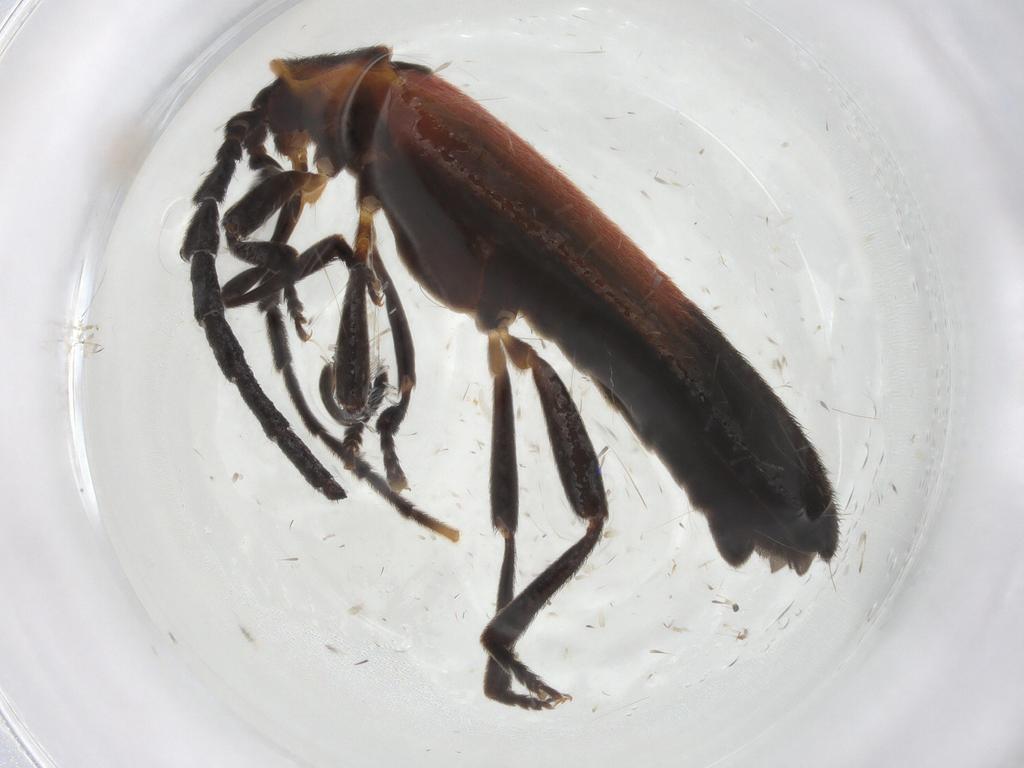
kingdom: Animalia
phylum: Arthropoda
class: Insecta
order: Coleoptera
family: Lycidae
